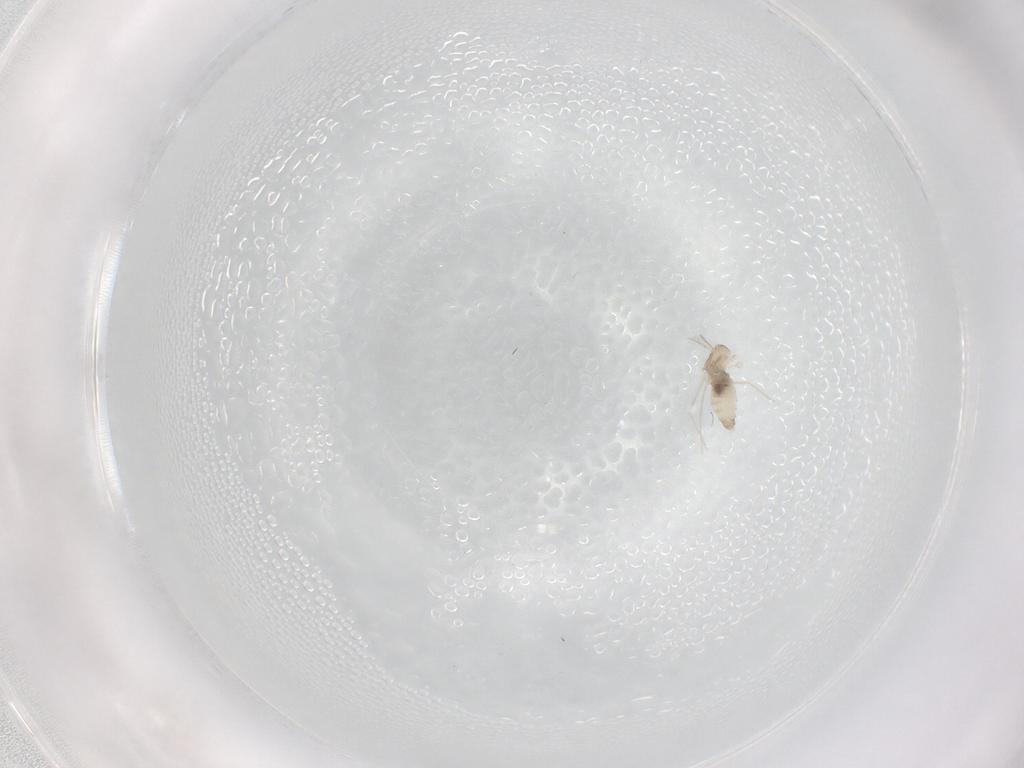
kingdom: Animalia
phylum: Arthropoda
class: Insecta
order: Diptera
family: Cecidomyiidae
